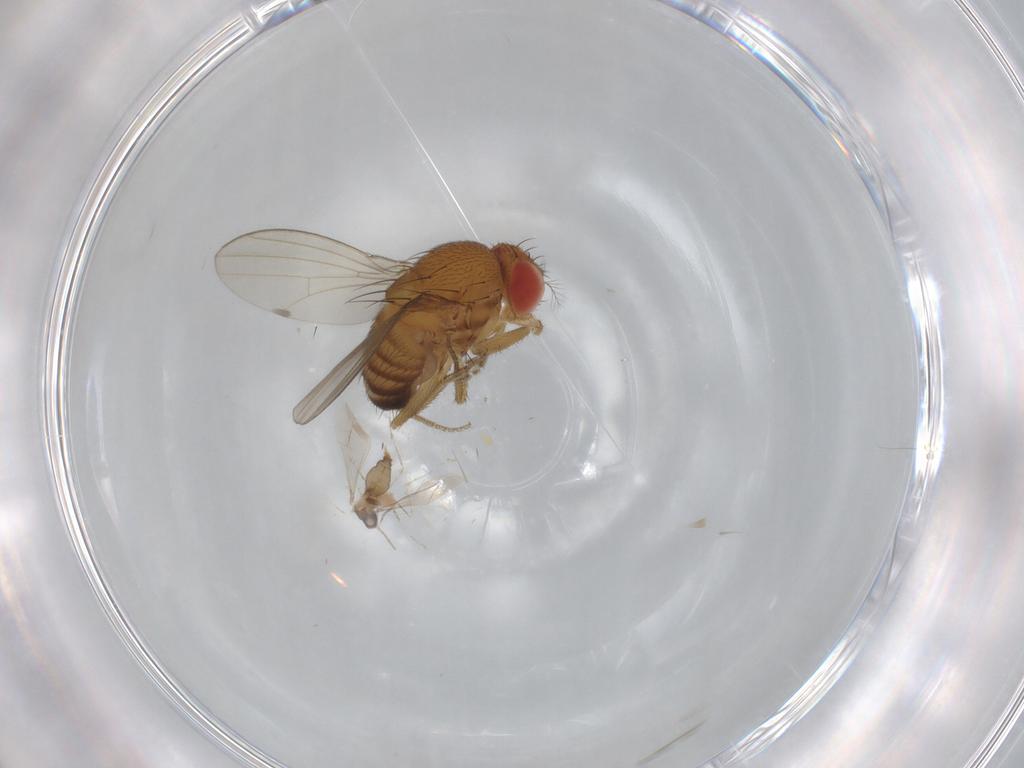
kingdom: Animalia
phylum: Arthropoda
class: Insecta
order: Diptera
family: Drosophilidae
